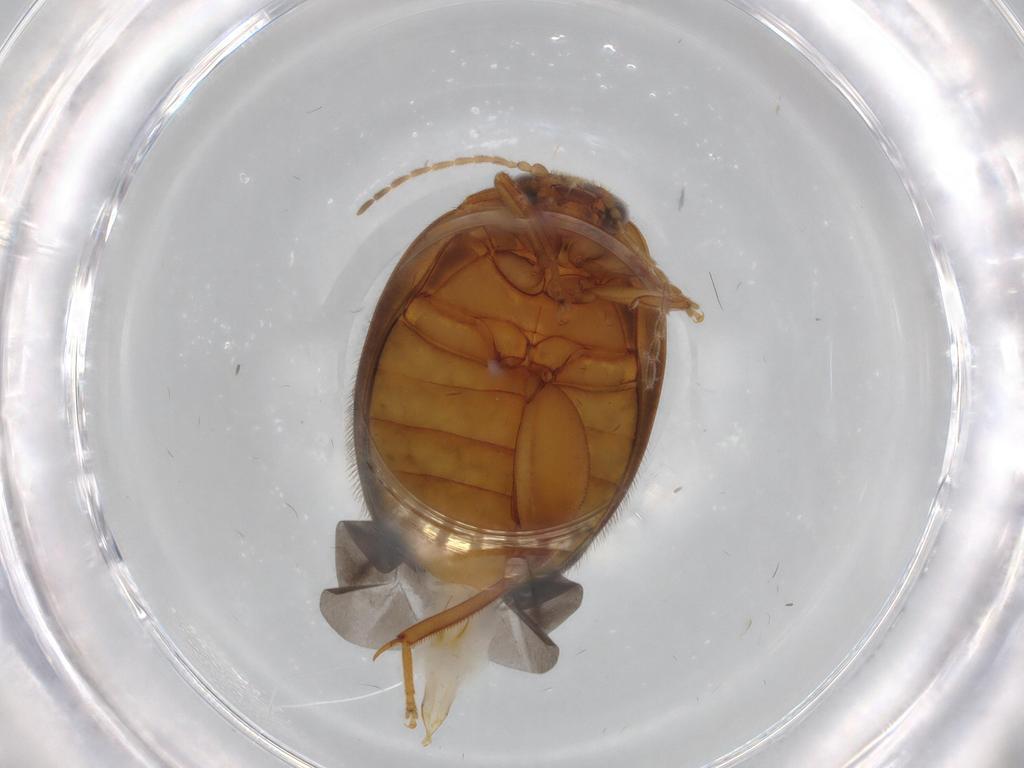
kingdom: Animalia
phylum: Arthropoda
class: Insecta
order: Coleoptera
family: Scirtidae
